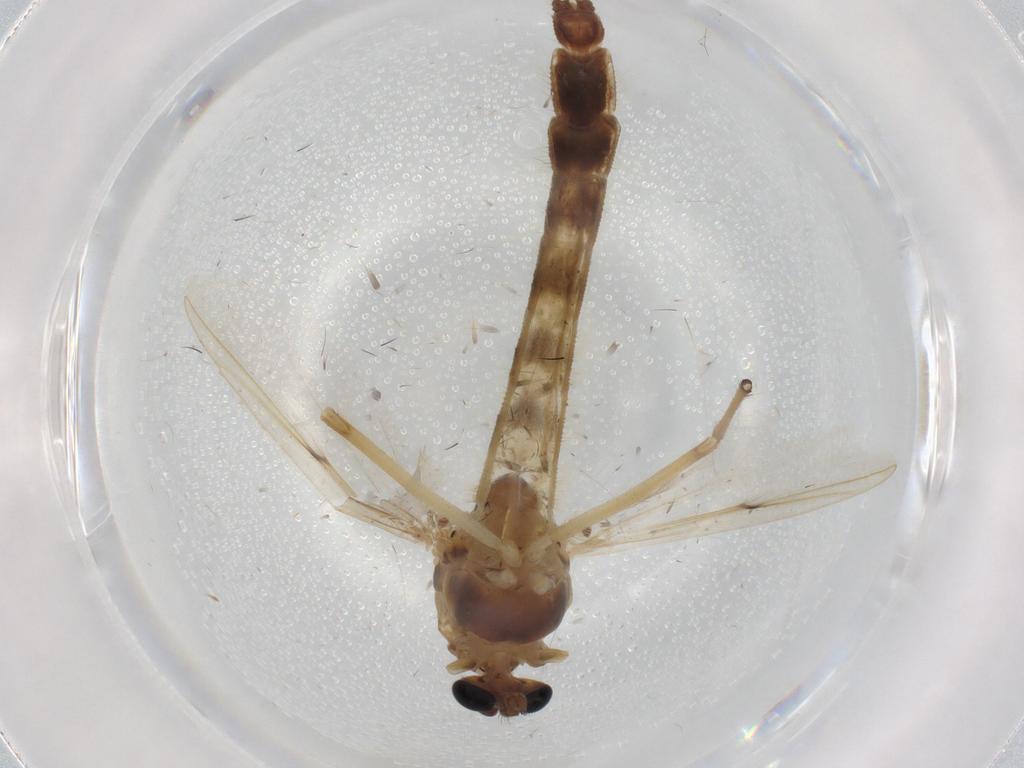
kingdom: Animalia
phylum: Arthropoda
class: Insecta
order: Diptera
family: Chironomidae
